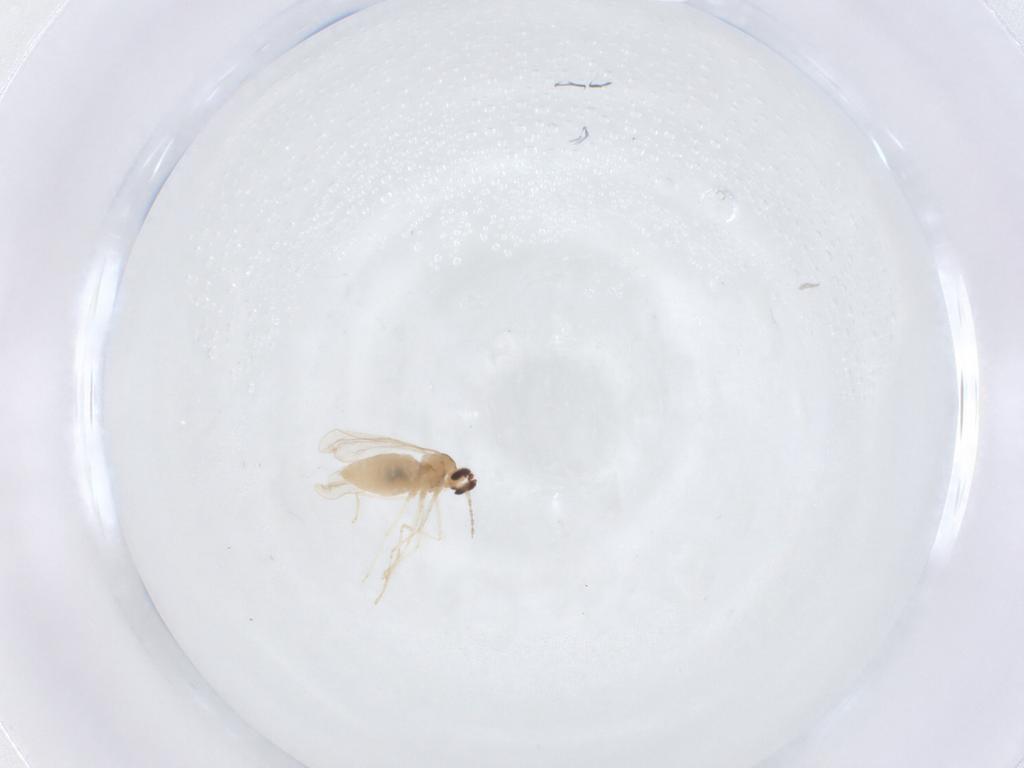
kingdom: Animalia
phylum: Arthropoda
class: Insecta
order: Diptera
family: Cecidomyiidae
